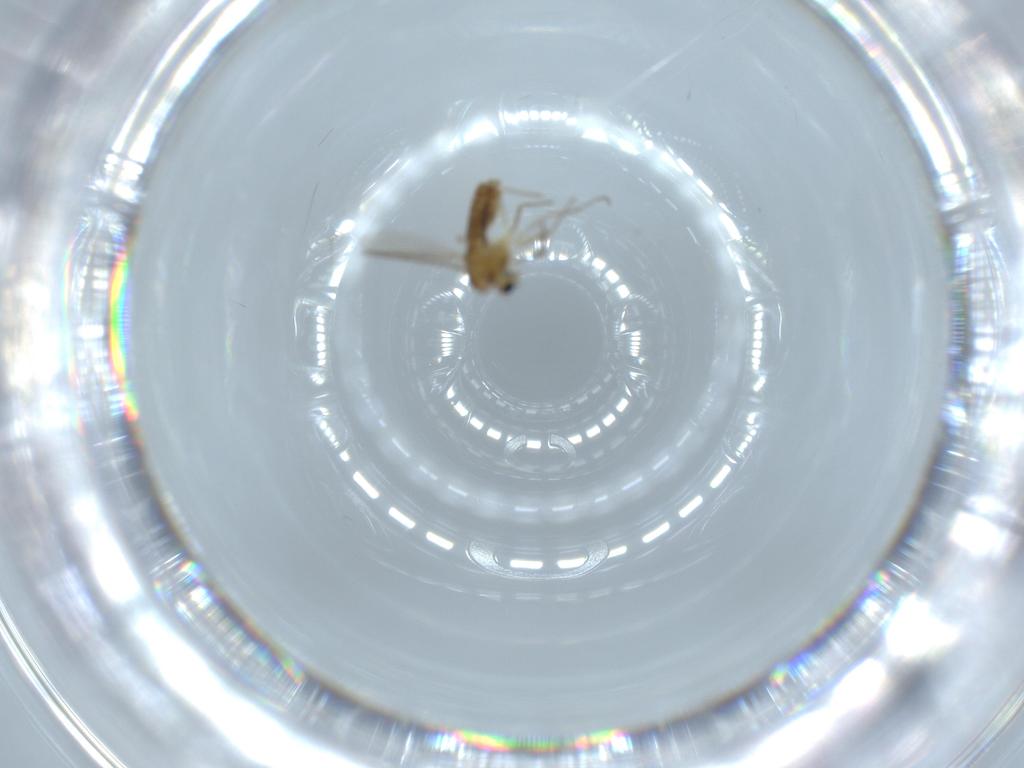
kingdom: Animalia
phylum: Arthropoda
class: Insecta
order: Diptera
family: Chironomidae
